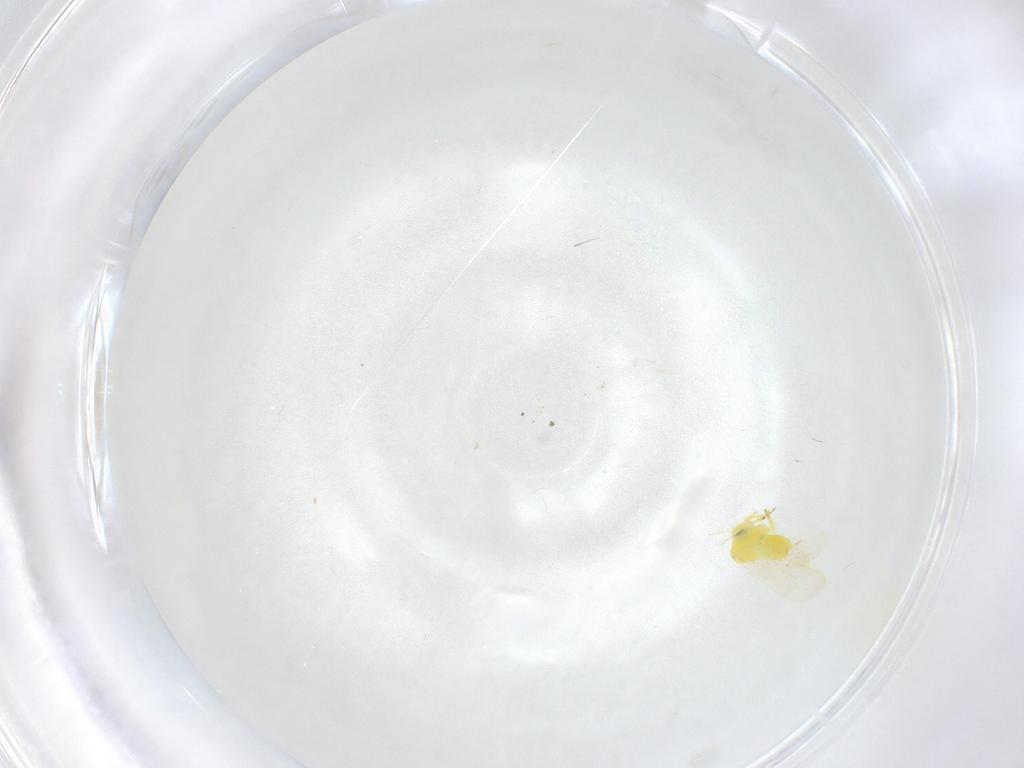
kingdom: Animalia
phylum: Arthropoda
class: Insecta
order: Hemiptera
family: Aleyrodidae
